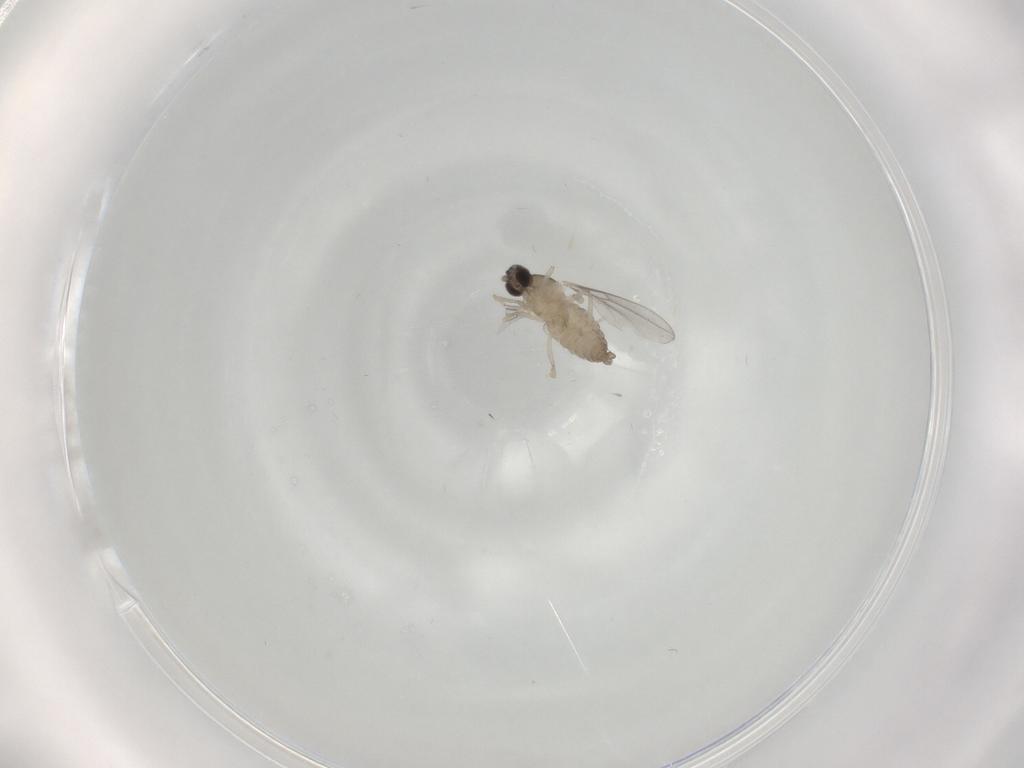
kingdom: Animalia
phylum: Arthropoda
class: Insecta
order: Diptera
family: Cecidomyiidae
